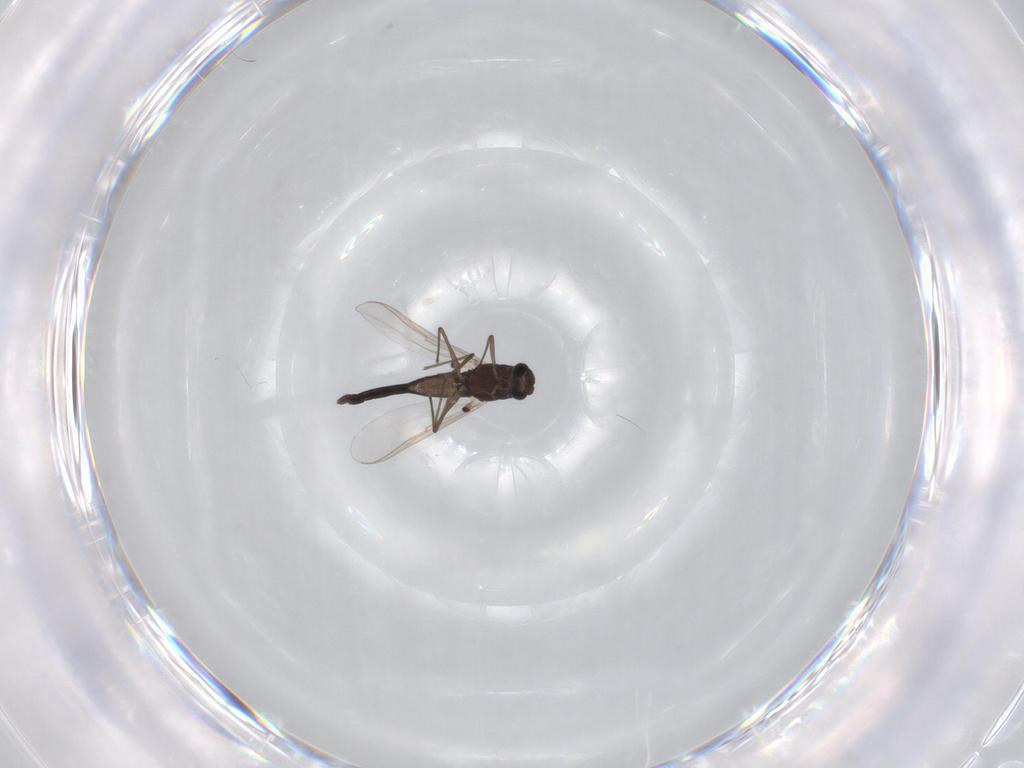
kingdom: Animalia
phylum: Arthropoda
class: Insecta
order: Diptera
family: Chironomidae
